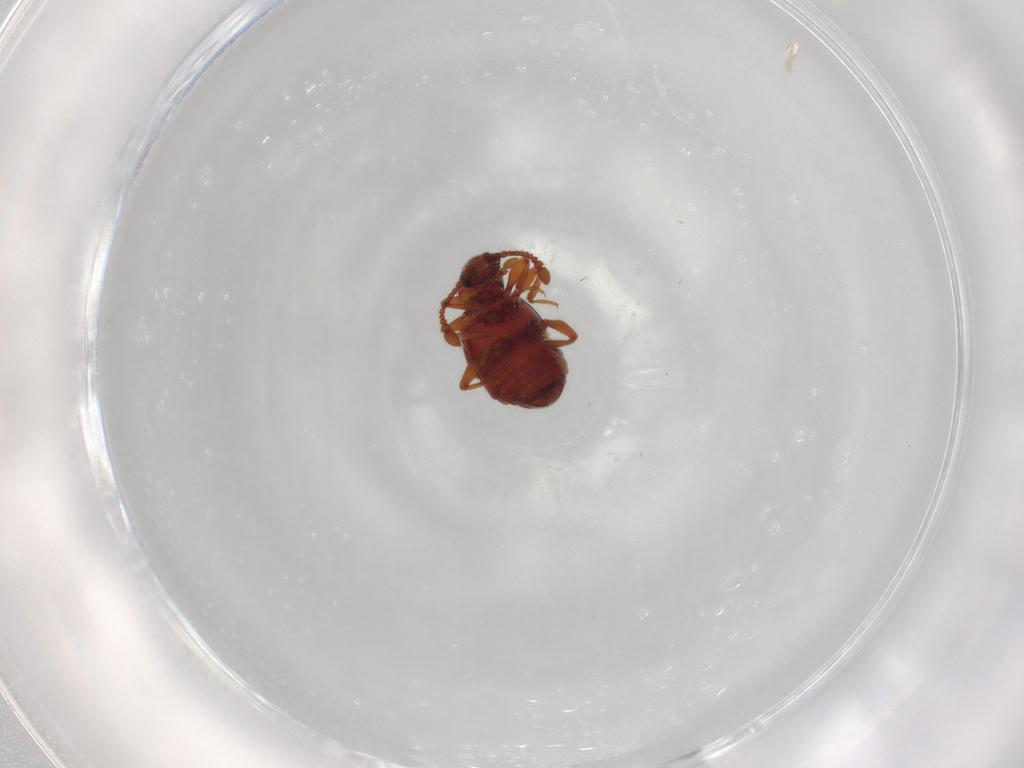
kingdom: Animalia
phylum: Arthropoda
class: Insecta
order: Coleoptera
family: Staphylinidae
